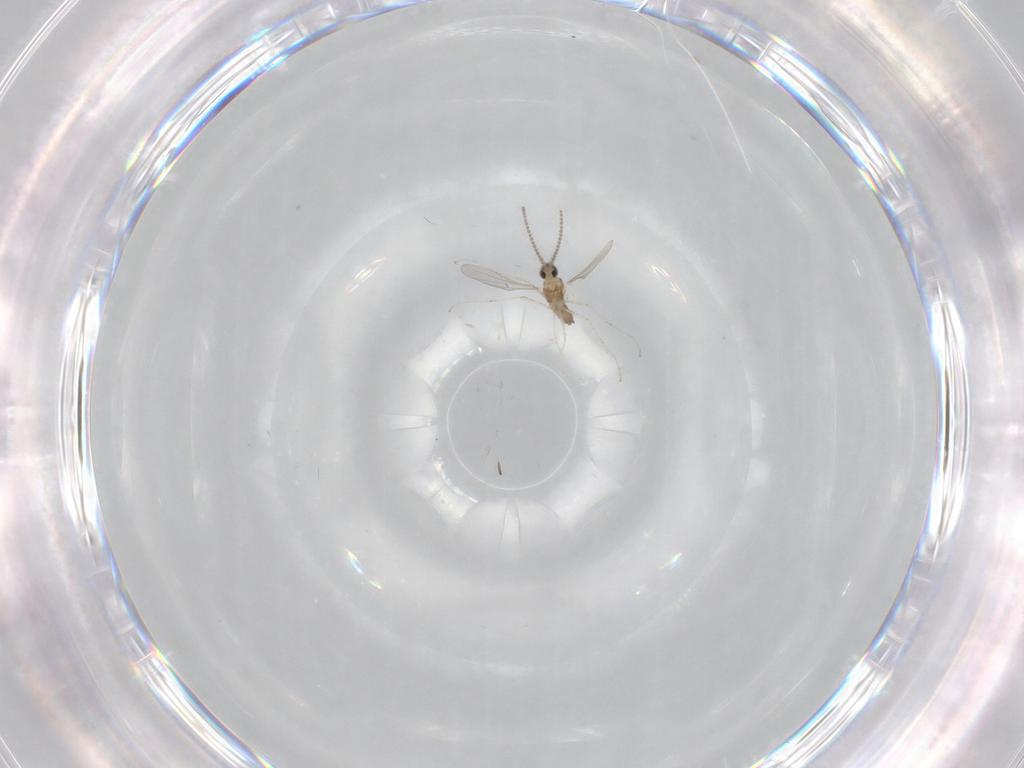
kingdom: Animalia
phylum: Arthropoda
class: Insecta
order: Diptera
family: Cecidomyiidae
